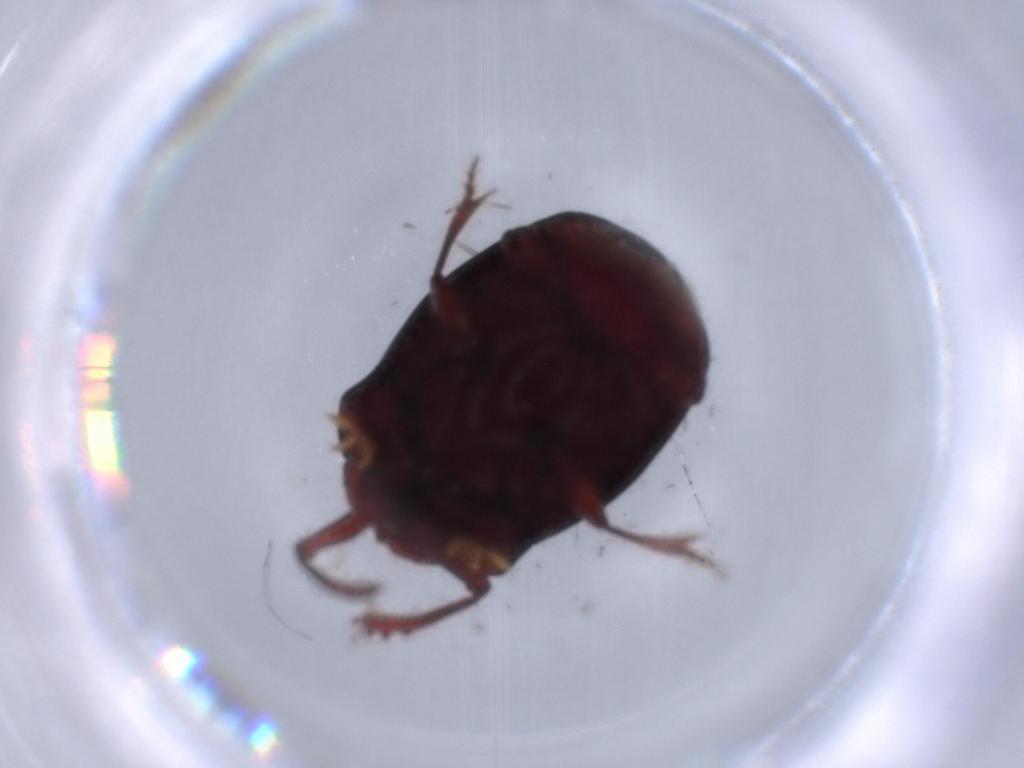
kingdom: Animalia
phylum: Arthropoda
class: Insecta
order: Coleoptera
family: Scarabaeidae
